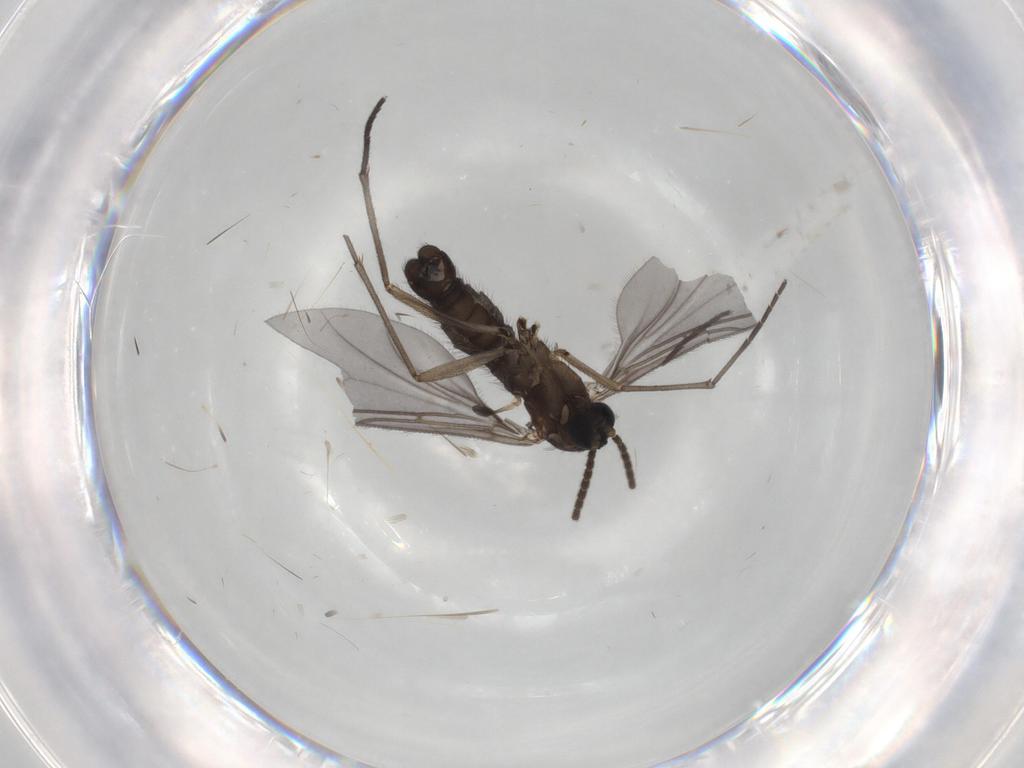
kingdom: Animalia
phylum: Arthropoda
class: Insecta
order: Diptera
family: Sciaridae
